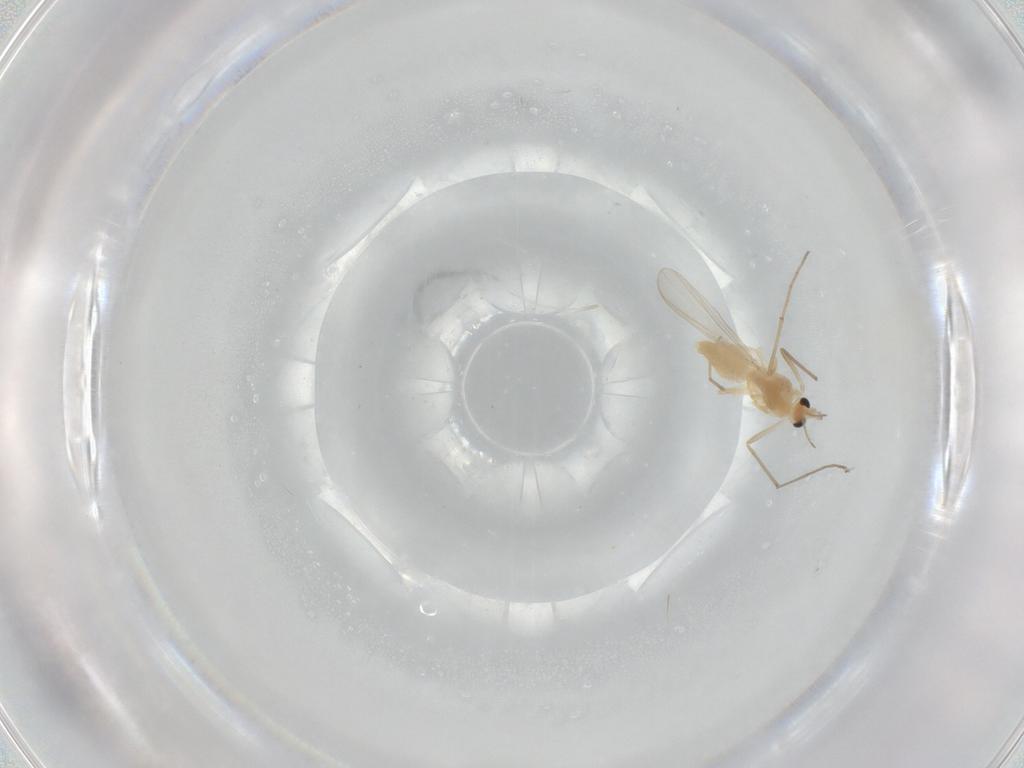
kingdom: Animalia
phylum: Arthropoda
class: Insecta
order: Diptera
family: Chironomidae
